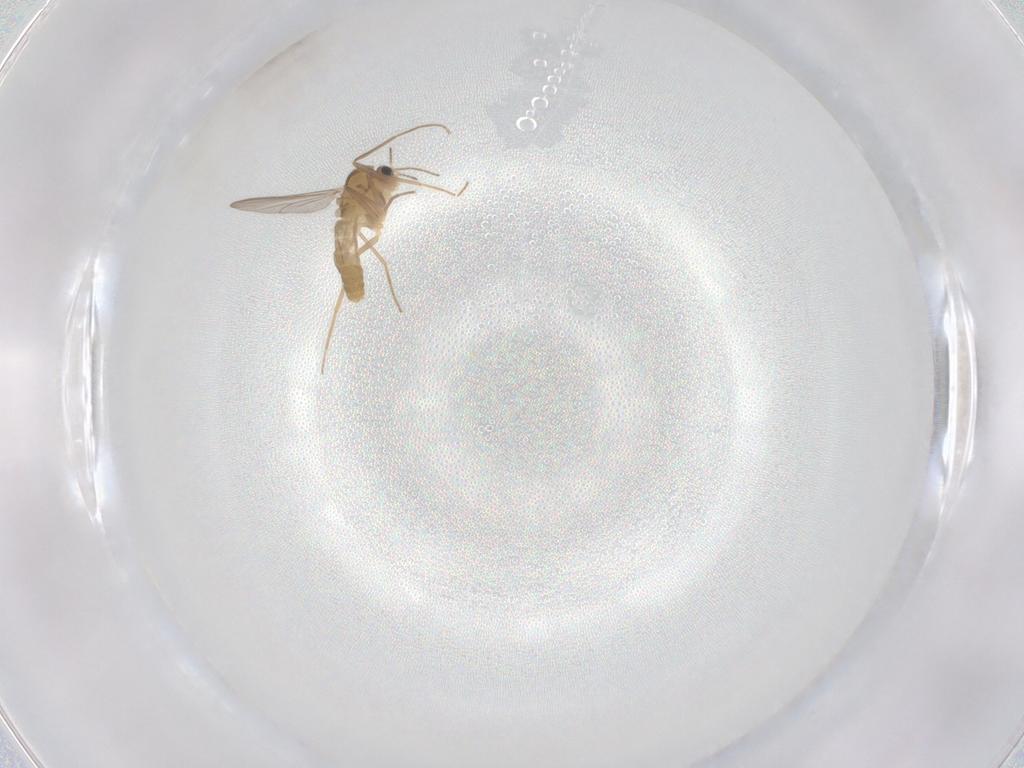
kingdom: Animalia
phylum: Arthropoda
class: Insecta
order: Diptera
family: Chironomidae
